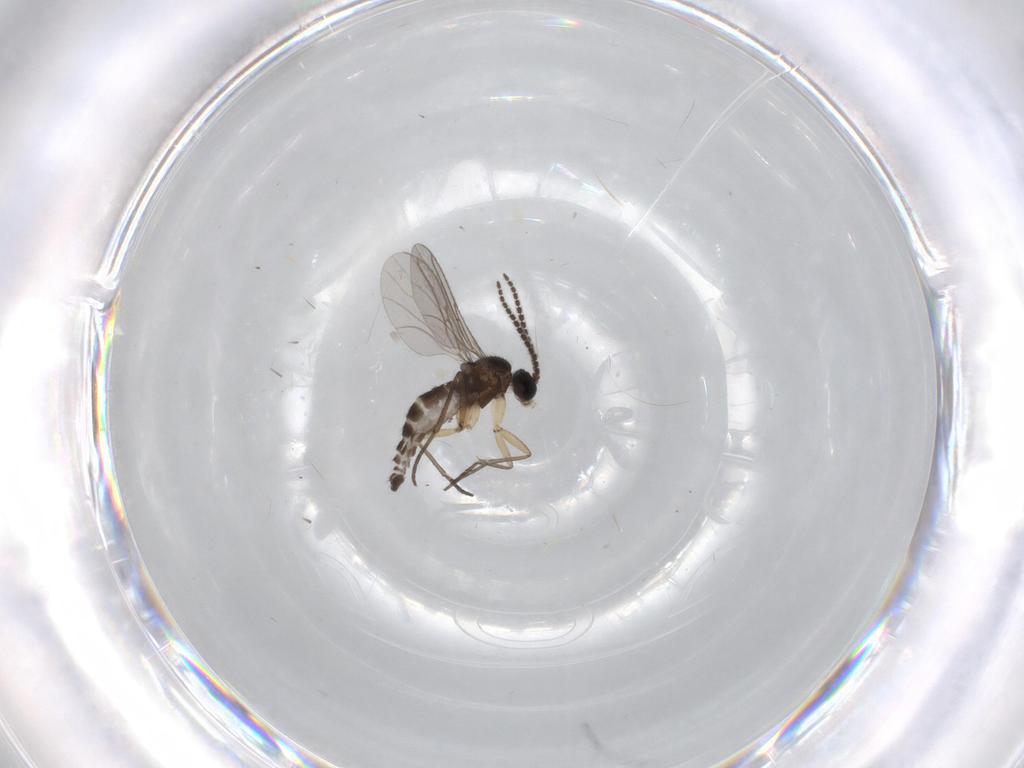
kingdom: Animalia
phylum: Arthropoda
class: Insecta
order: Diptera
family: Sciaridae
